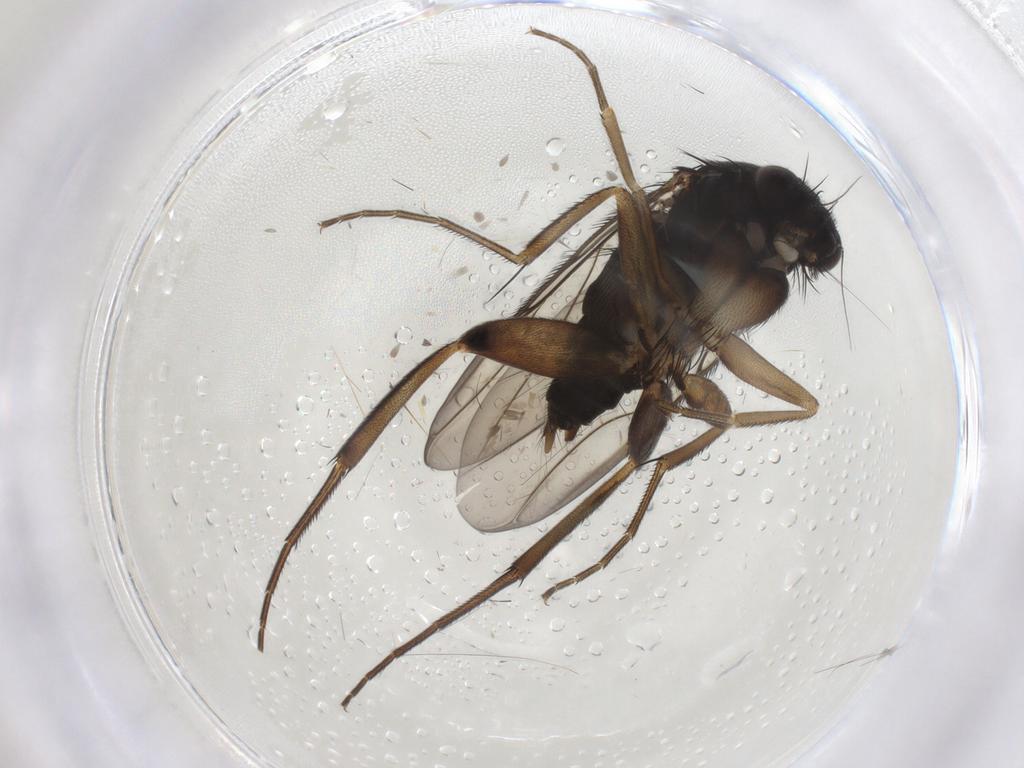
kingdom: Animalia
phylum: Arthropoda
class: Insecta
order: Diptera
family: Phoridae
